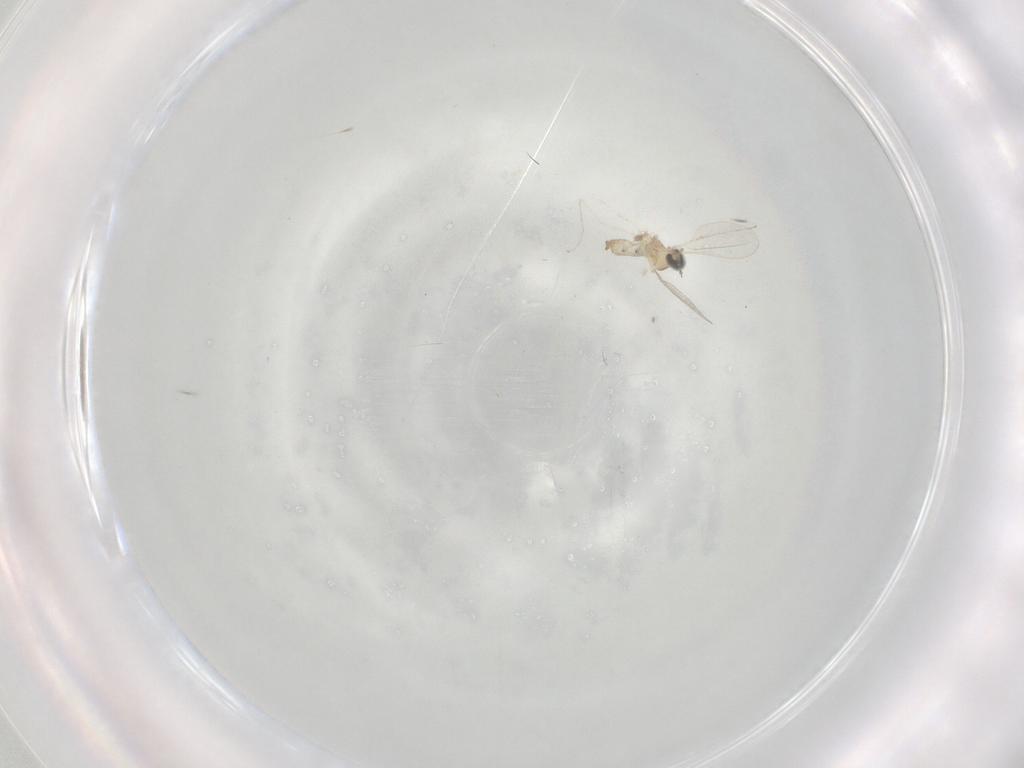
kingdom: Animalia
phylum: Arthropoda
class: Insecta
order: Diptera
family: Cecidomyiidae
